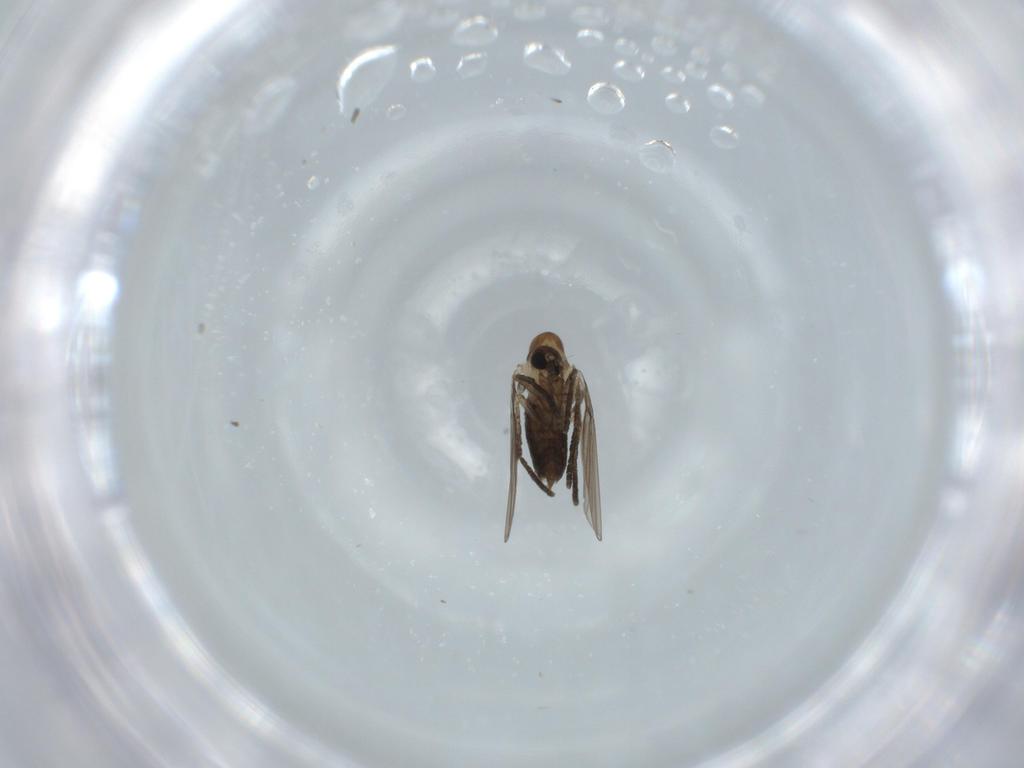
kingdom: Animalia
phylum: Arthropoda
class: Insecta
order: Diptera
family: Psychodidae
